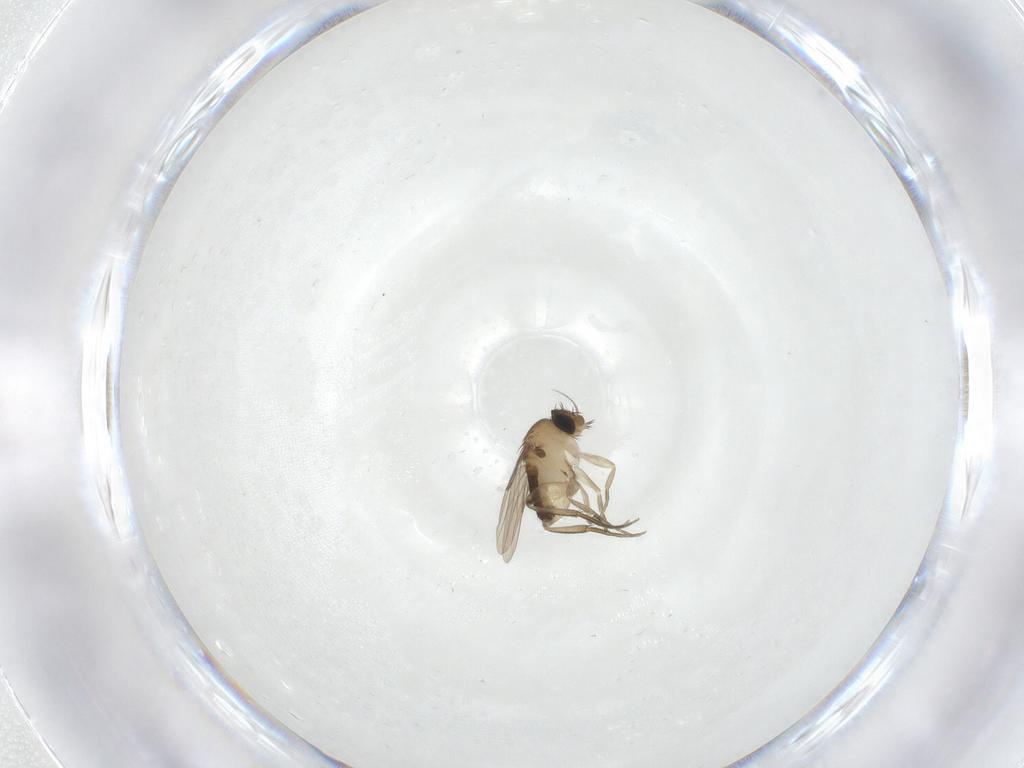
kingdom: Animalia
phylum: Arthropoda
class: Insecta
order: Diptera
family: Phoridae
